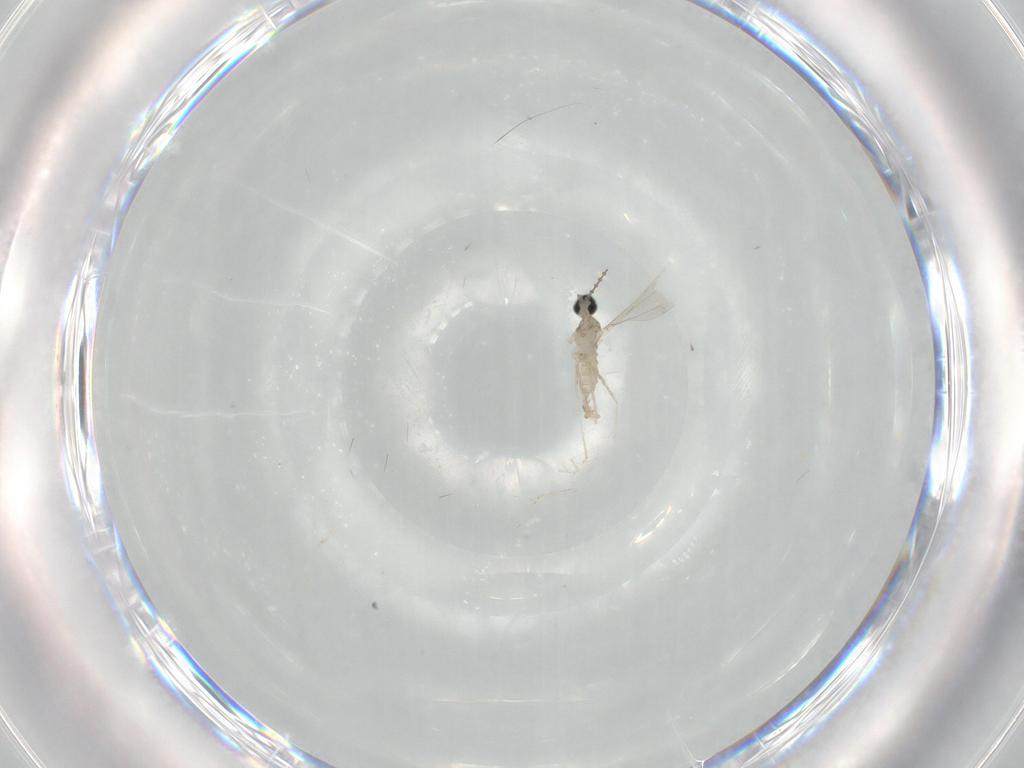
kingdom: Animalia
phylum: Arthropoda
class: Insecta
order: Diptera
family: Cecidomyiidae
